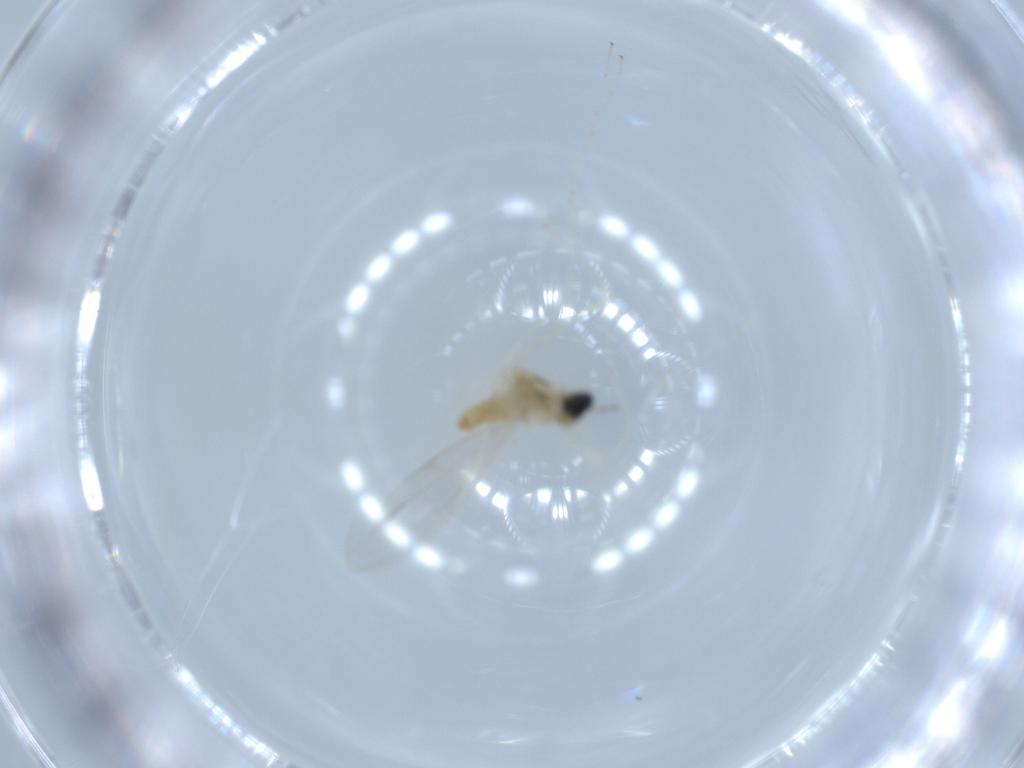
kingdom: Animalia
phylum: Arthropoda
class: Insecta
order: Diptera
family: Cecidomyiidae
